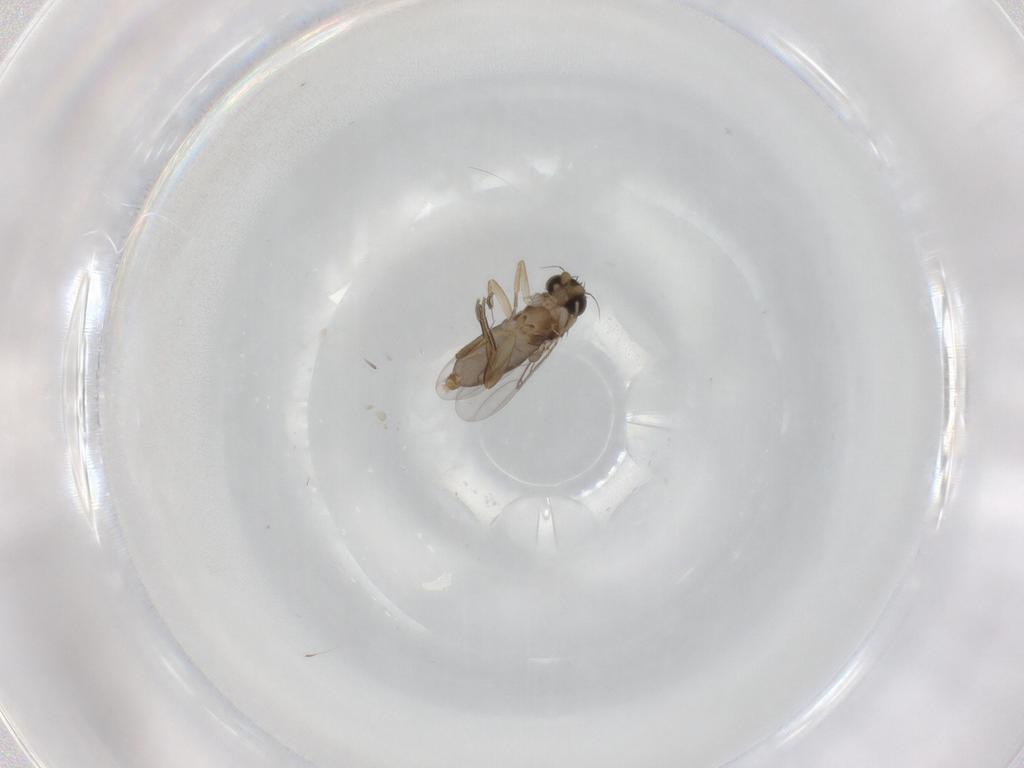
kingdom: Animalia
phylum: Arthropoda
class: Insecta
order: Diptera
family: Phoridae
